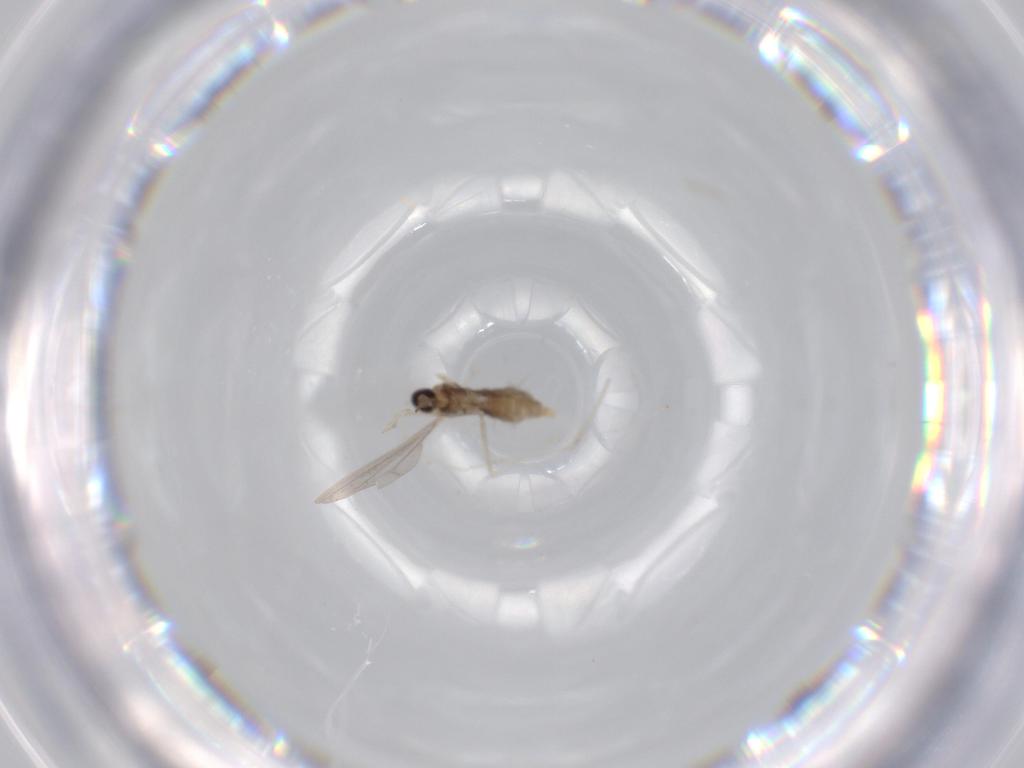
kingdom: Animalia
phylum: Arthropoda
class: Insecta
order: Diptera
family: Cecidomyiidae
